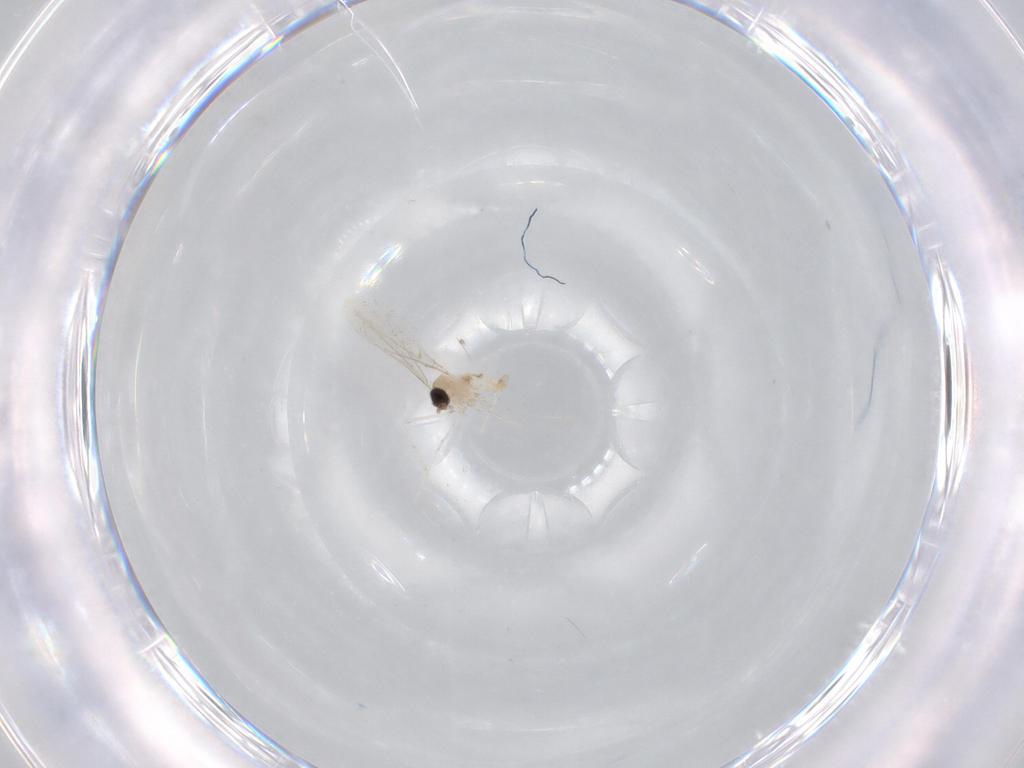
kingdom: Animalia
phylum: Arthropoda
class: Insecta
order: Diptera
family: Cecidomyiidae
